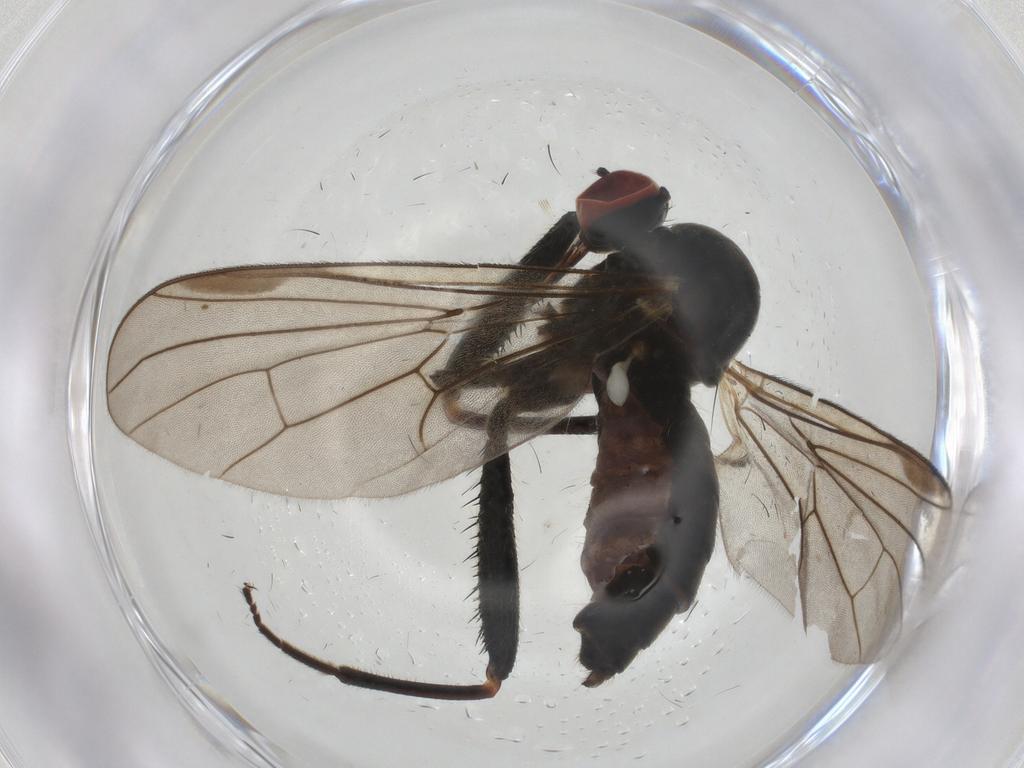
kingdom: Animalia
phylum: Arthropoda
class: Insecta
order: Diptera
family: Hybotidae
